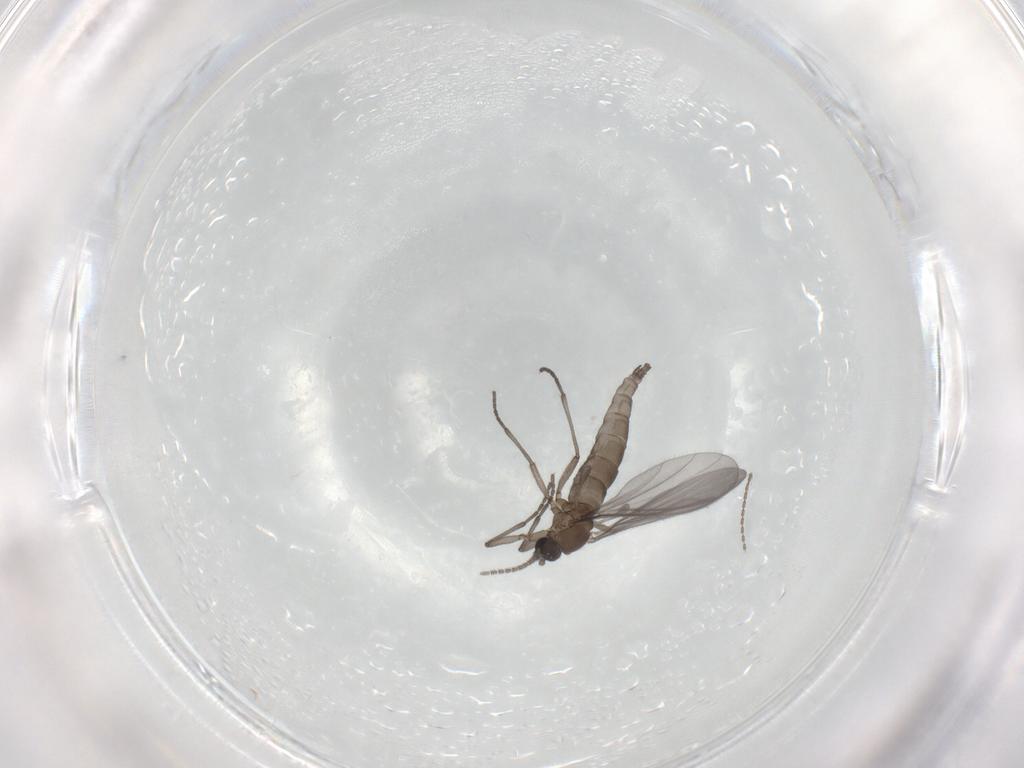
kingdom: Animalia
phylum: Arthropoda
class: Insecta
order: Diptera
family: Sciaridae
